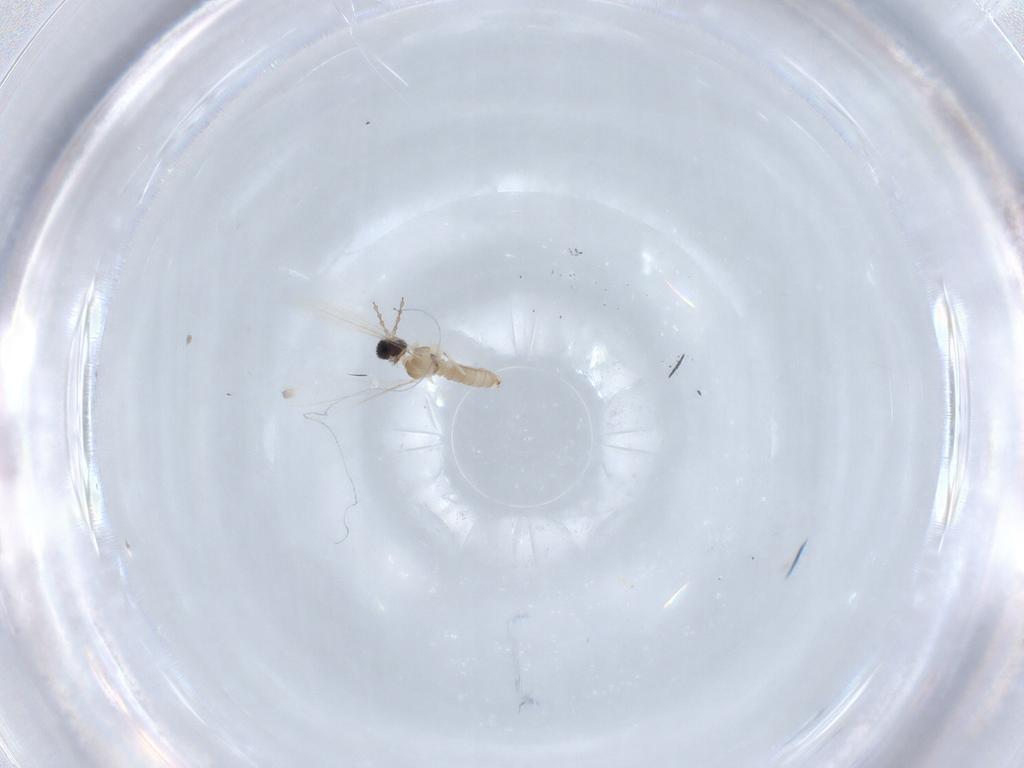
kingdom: Animalia
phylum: Arthropoda
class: Insecta
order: Diptera
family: Cecidomyiidae
